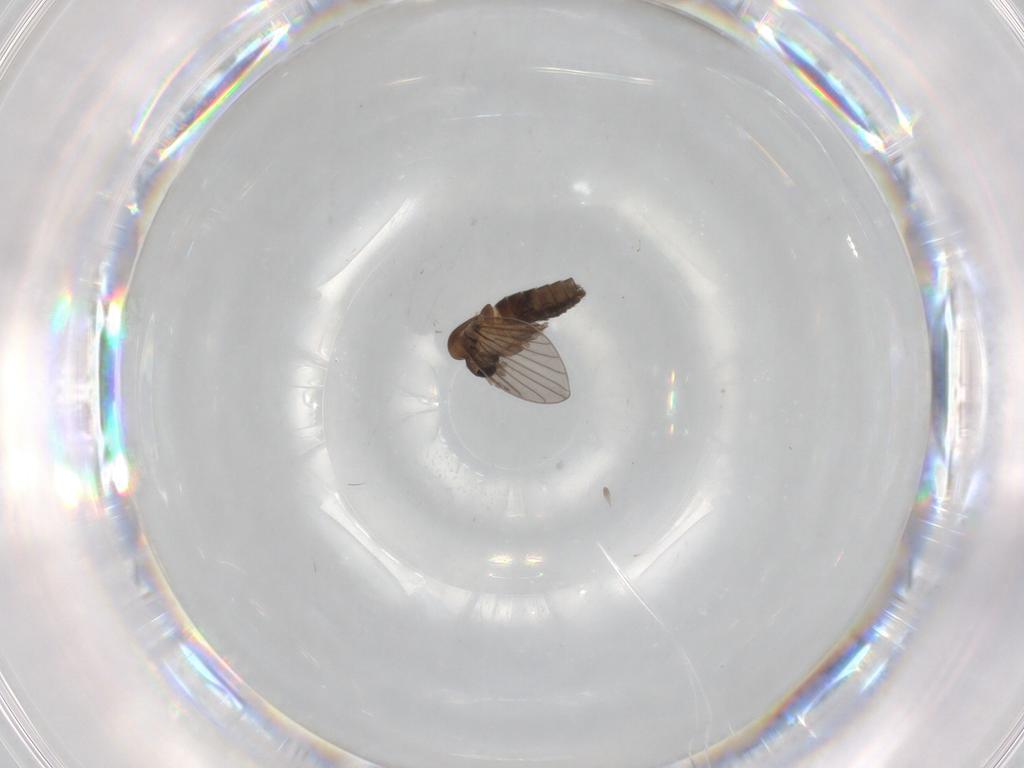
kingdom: Animalia
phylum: Arthropoda
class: Insecta
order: Diptera
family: Psychodidae
